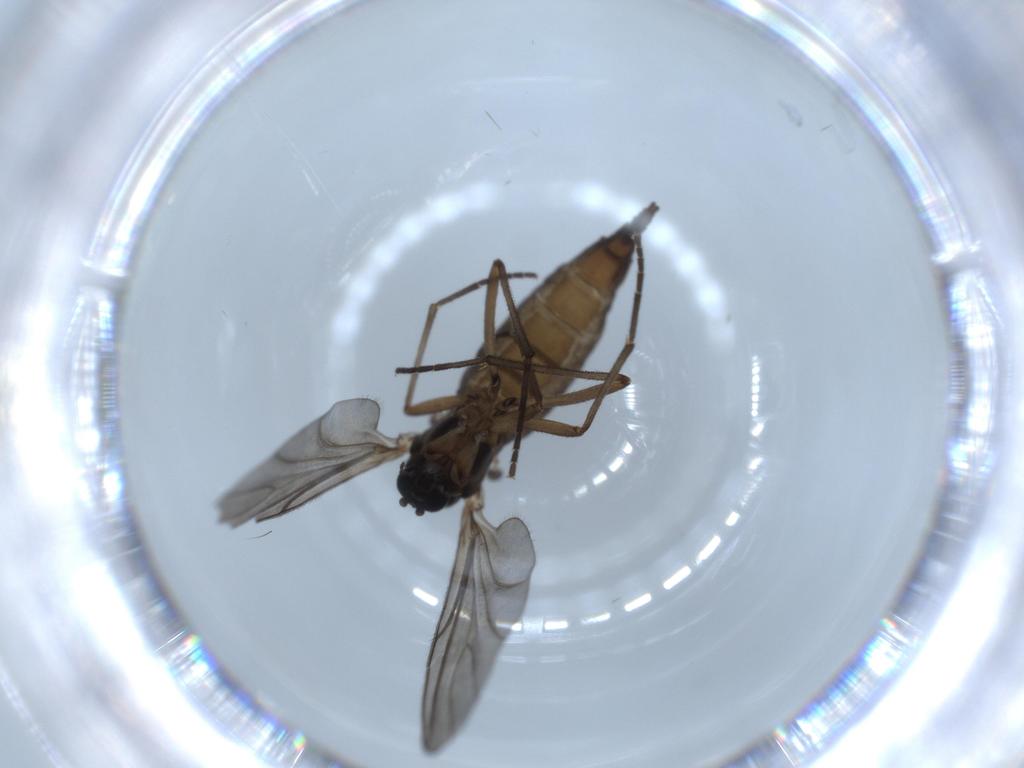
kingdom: Animalia
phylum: Arthropoda
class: Insecta
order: Diptera
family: Sciaridae
